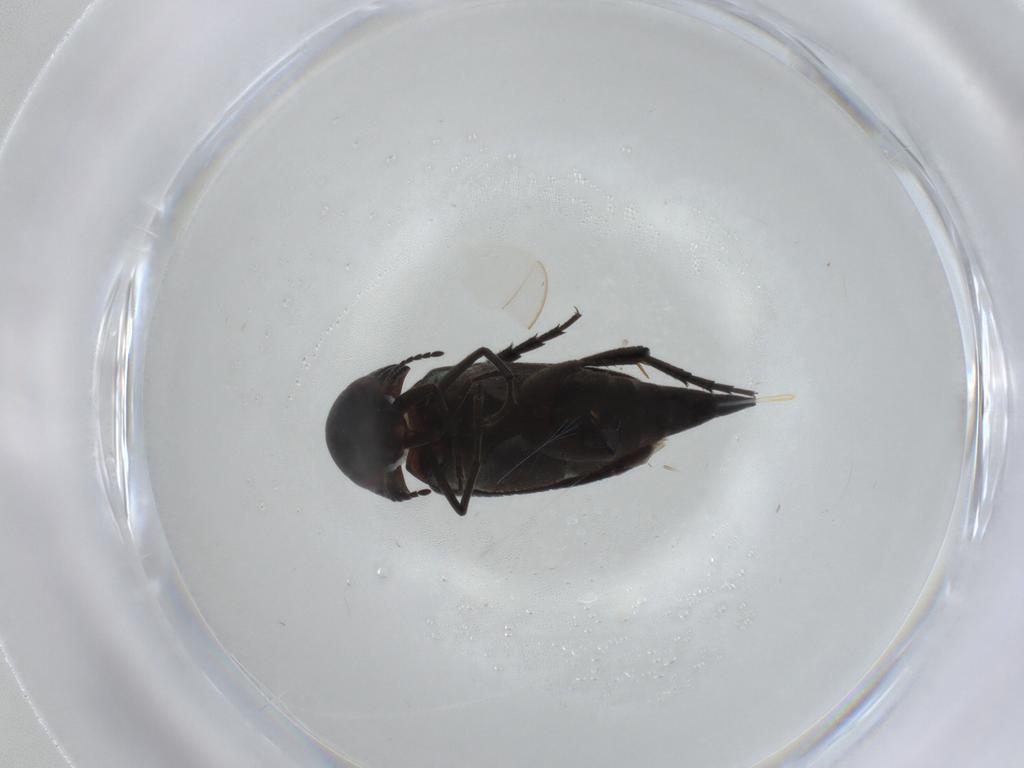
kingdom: Animalia
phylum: Arthropoda
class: Insecta
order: Coleoptera
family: Mordellidae
